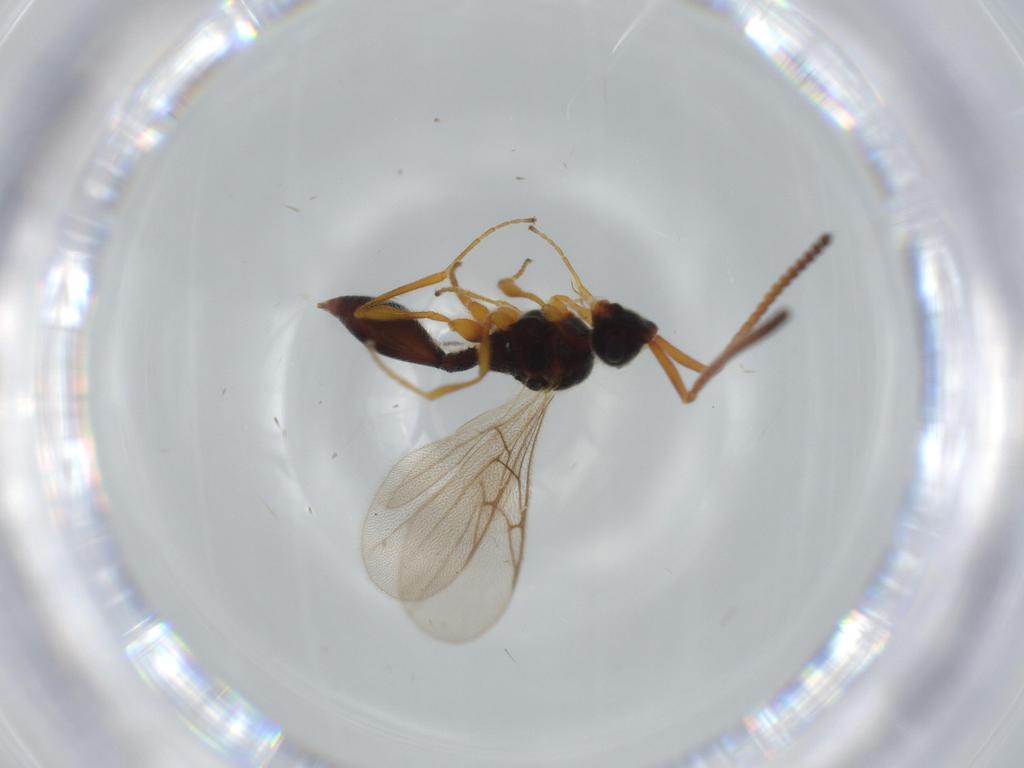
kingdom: Animalia
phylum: Arthropoda
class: Insecta
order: Hymenoptera
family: Diapriidae
